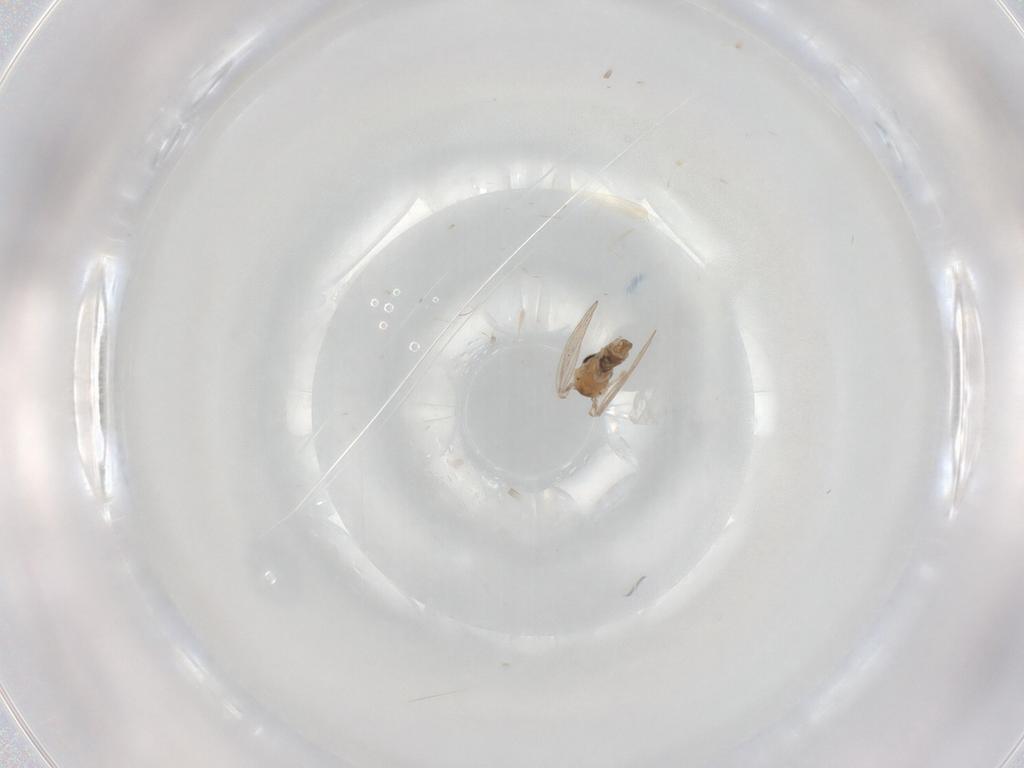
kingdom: Animalia
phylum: Arthropoda
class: Insecta
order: Diptera
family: Psychodidae
